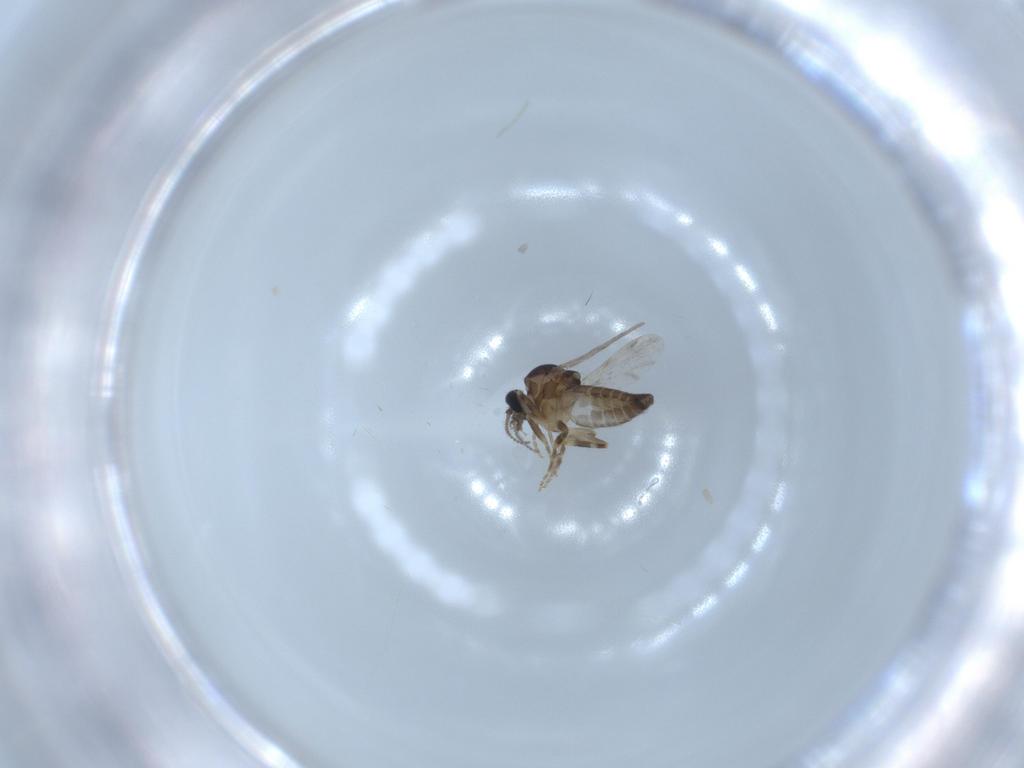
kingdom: Animalia
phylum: Arthropoda
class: Insecta
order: Diptera
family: Ceratopogonidae
